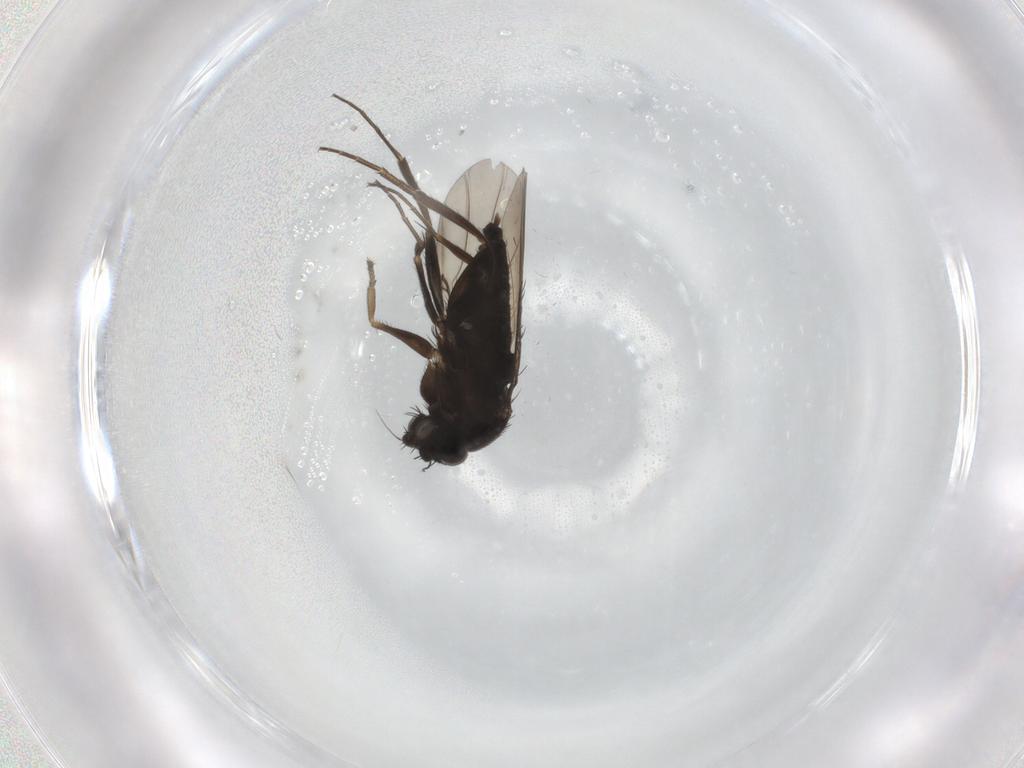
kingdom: Animalia
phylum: Arthropoda
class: Insecta
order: Diptera
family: Phoridae
